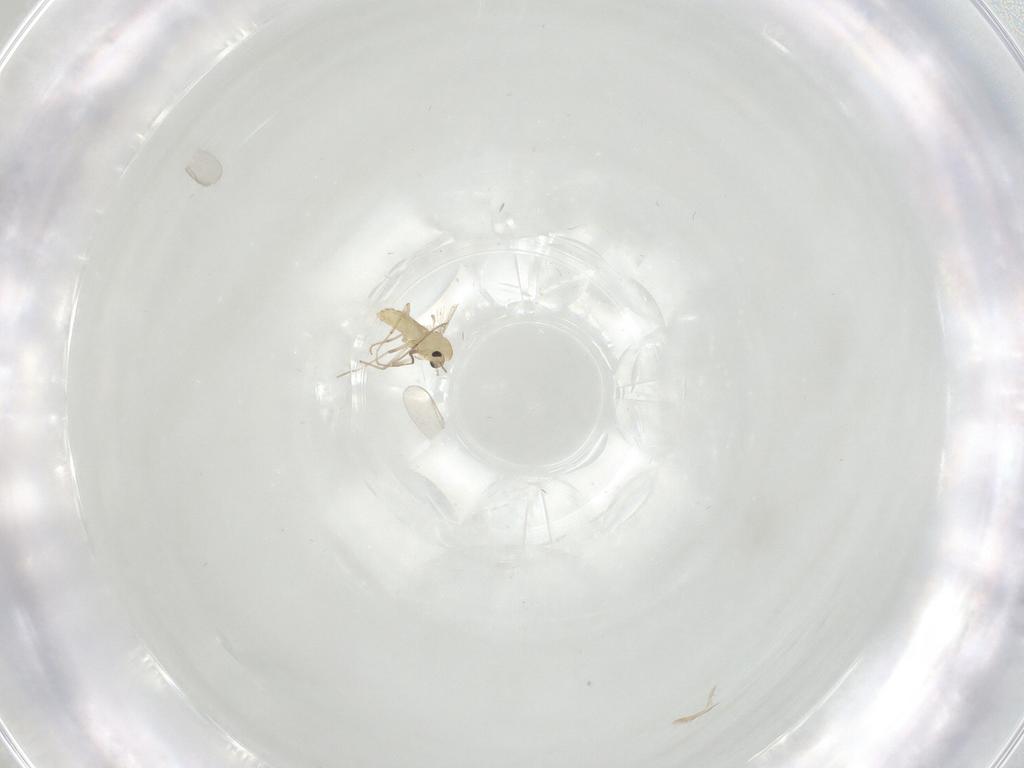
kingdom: Animalia
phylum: Arthropoda
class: Insecta
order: Diptera
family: Chironomidae
